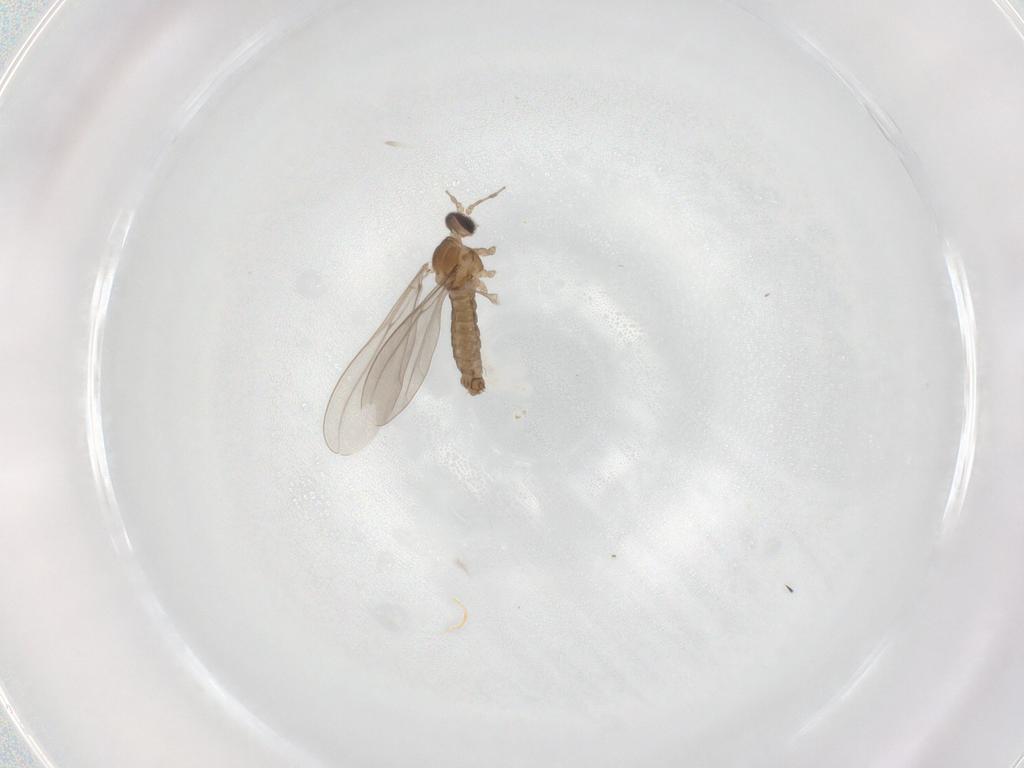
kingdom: Animalia
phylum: Arthropoda
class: Insecta
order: Diptera
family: Cecidomyiidae
